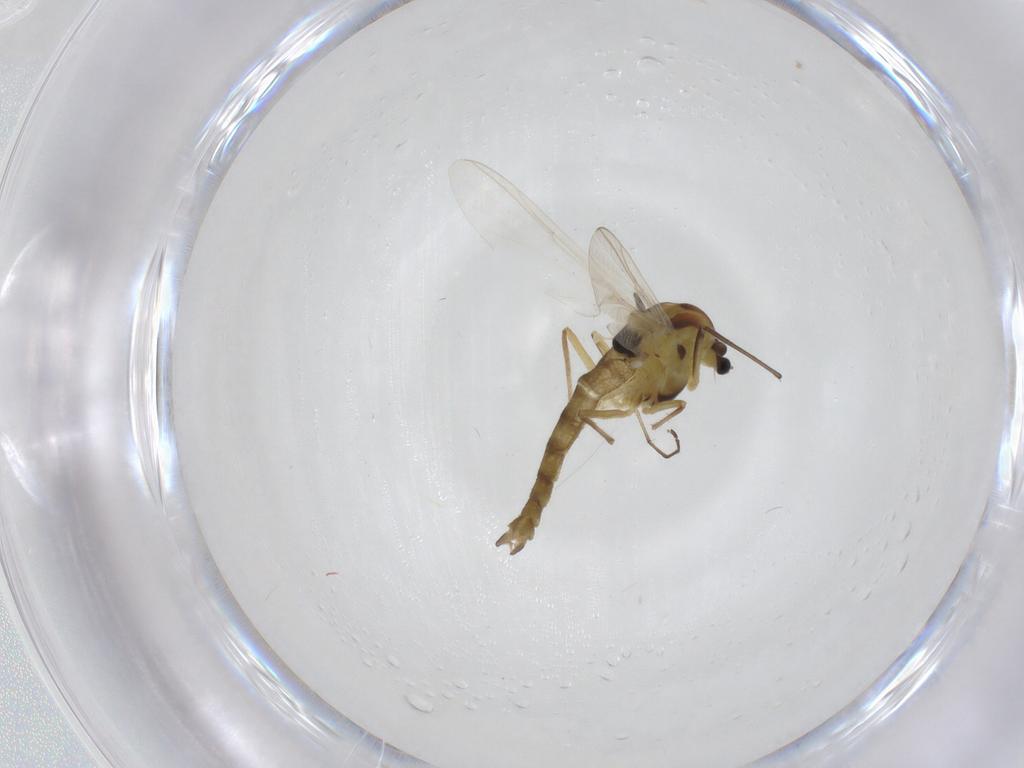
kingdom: Animalia
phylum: Arthropoda
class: Insecta
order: Diptera
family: Chironomidae
